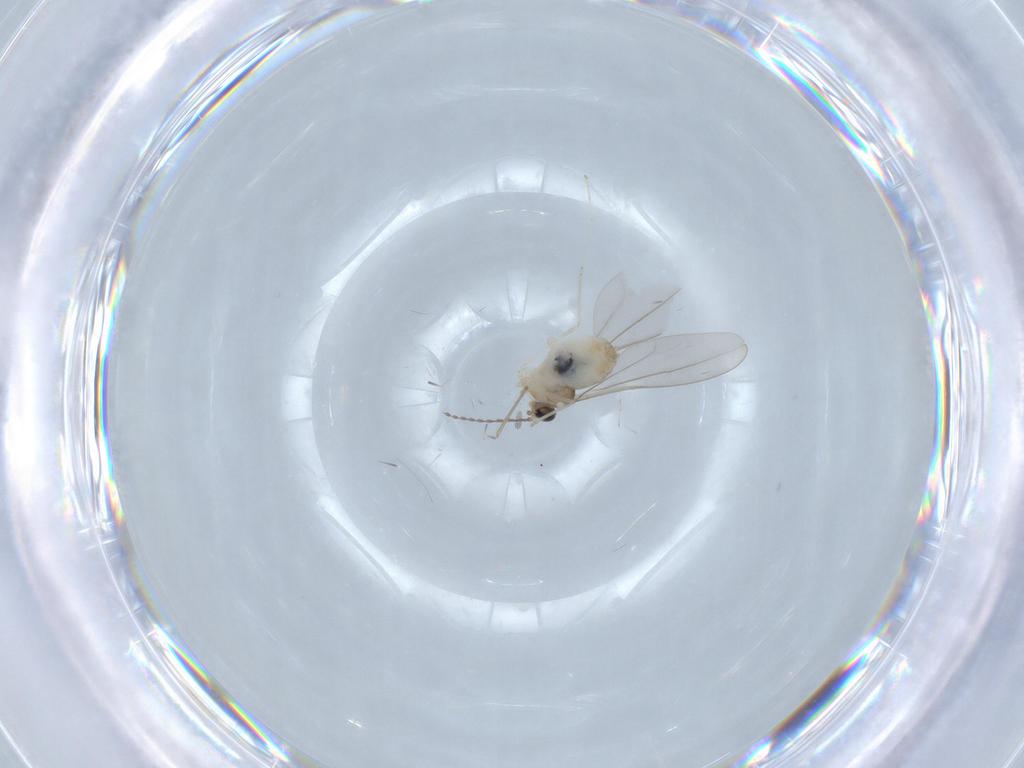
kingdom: Animalia
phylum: Arthropoda
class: Insecta
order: Diptera
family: Cecidomyiidae
